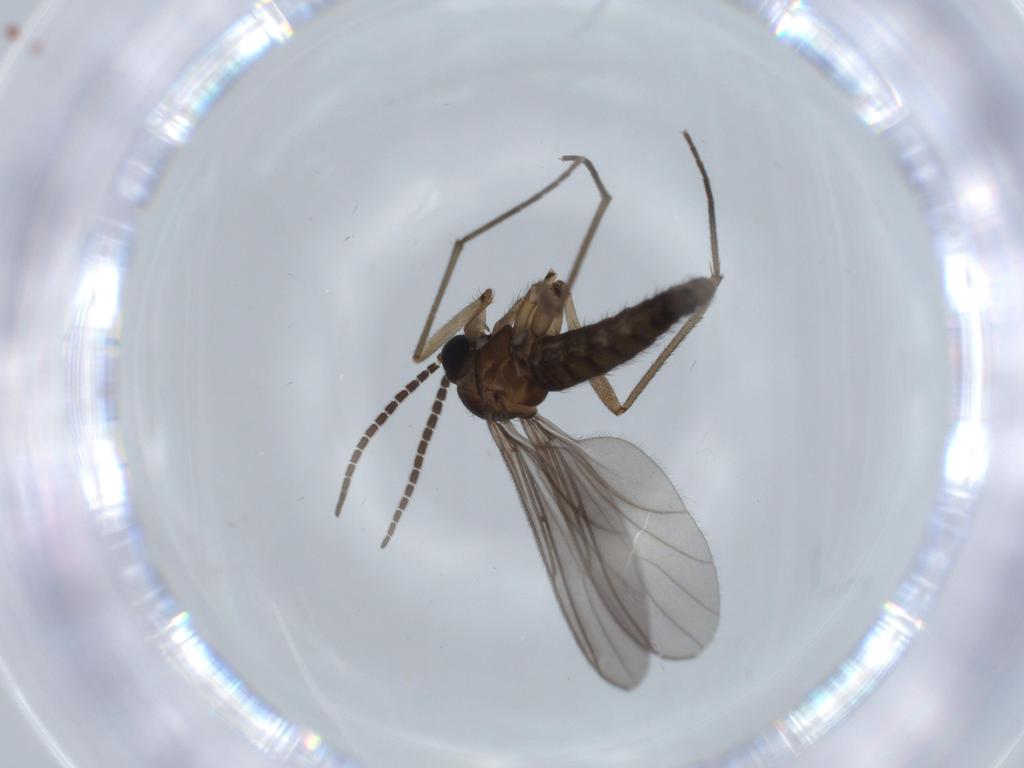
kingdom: Animalia
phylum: Arthropoda
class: Insecta
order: Diptera
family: Sciaridae
